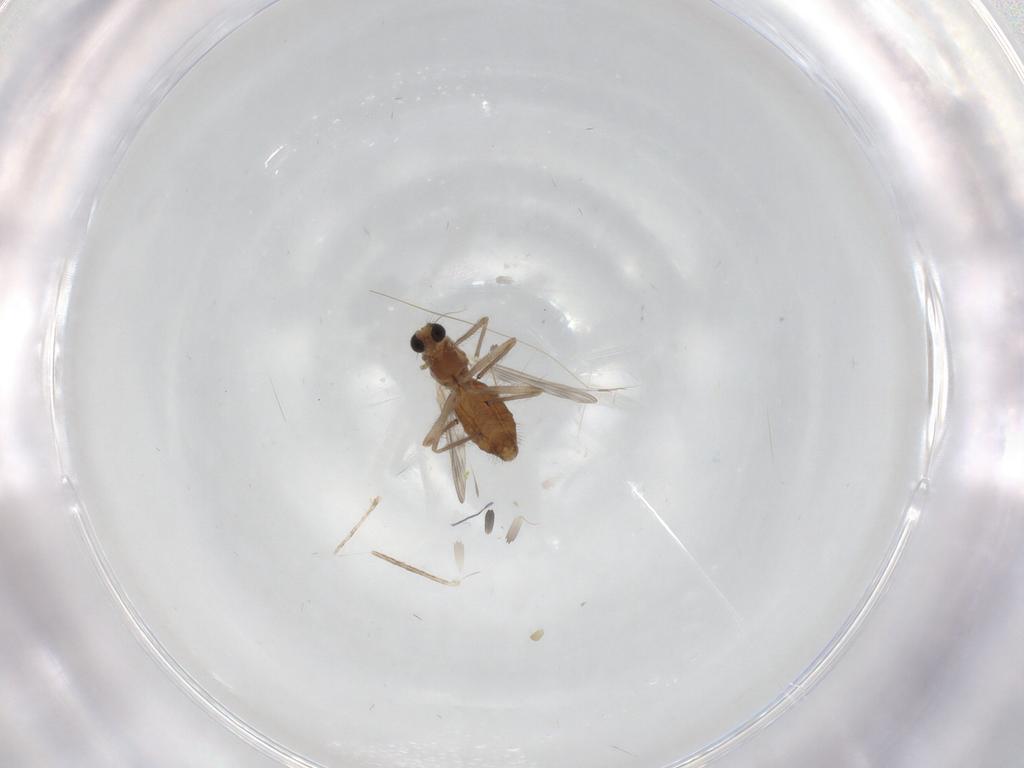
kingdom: Animalia
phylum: Arthropoda
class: Insecta
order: Diptera
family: Chironomidae
